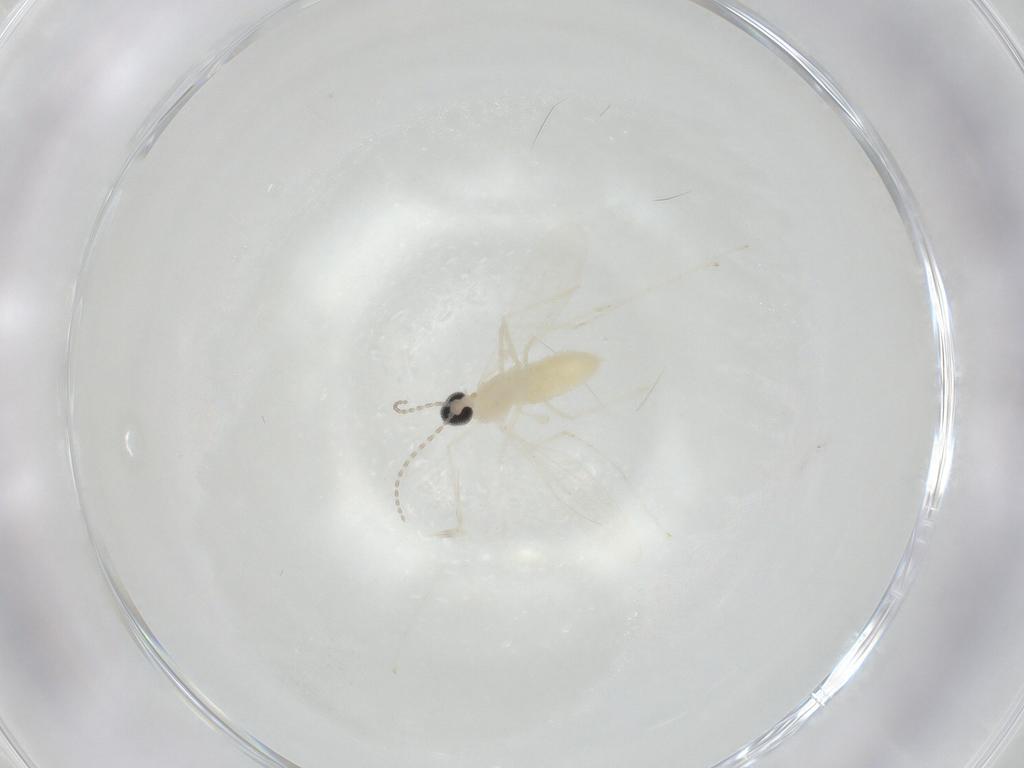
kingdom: Animalia
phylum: Arthropoda
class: Insecta
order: Diptera
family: Cecidomyiidae
